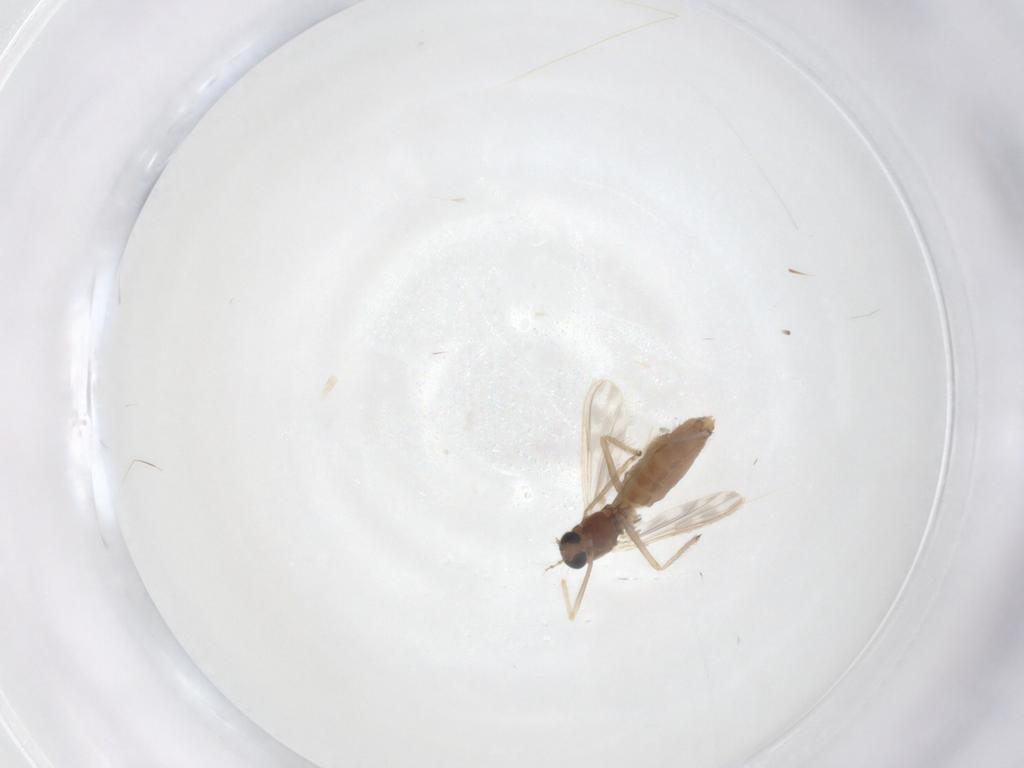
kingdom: Animalia
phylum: Arthropoda
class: Insecta
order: Diptera
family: Chironomidae
